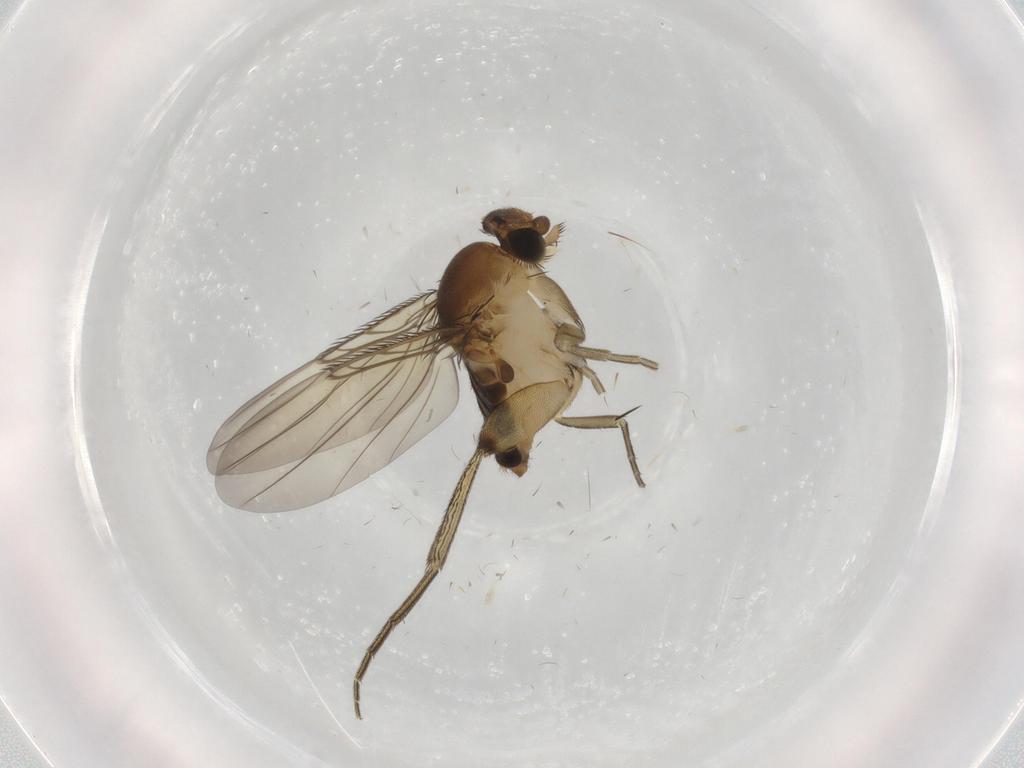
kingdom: Animalia
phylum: Arthropoda
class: Insecta
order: Diptera
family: Phoridae
